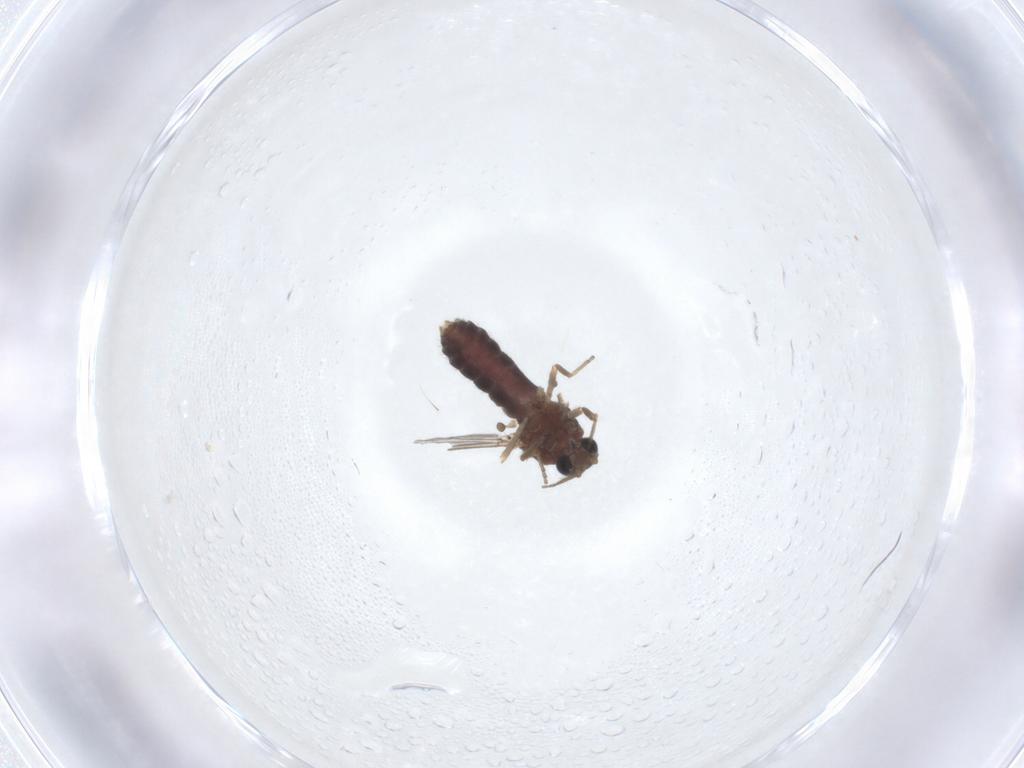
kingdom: Animalia
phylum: Arthropoda
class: Insecta
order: Diptera
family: Ceratopogonidae
